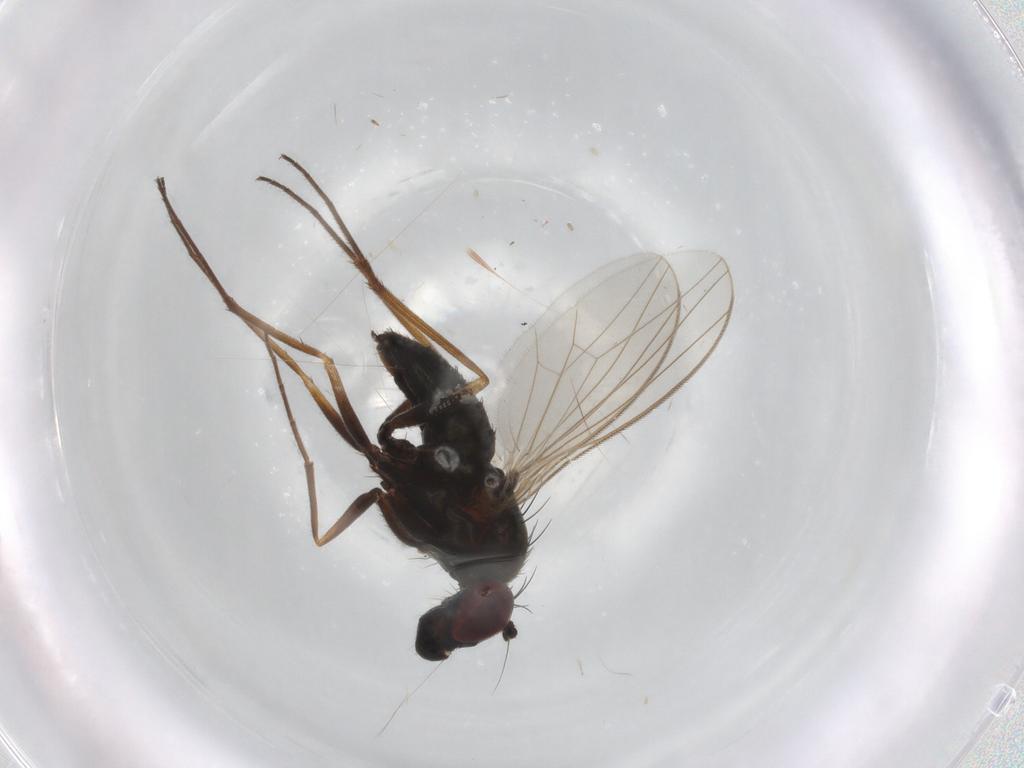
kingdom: Animalia
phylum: Arthropoda
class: Insecta
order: Diptera
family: Dolichopodidae
